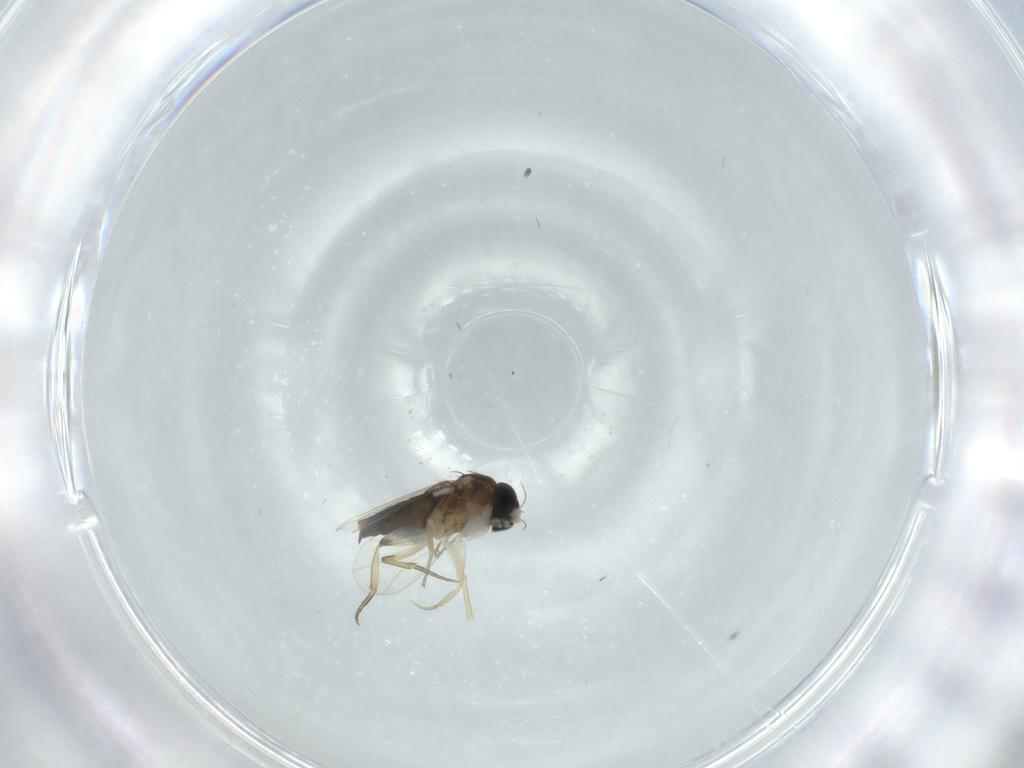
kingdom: Animalia
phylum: Arthropoda
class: Insecta
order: Diptera
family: Phoridae
